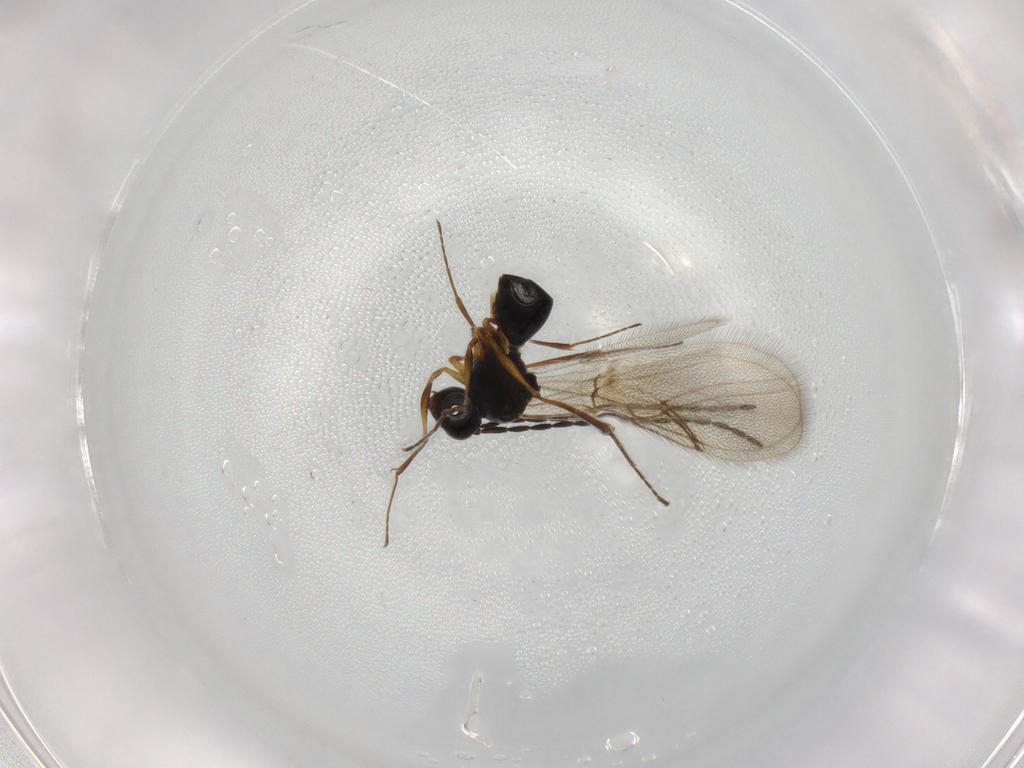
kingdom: Animalia
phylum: Arthropoda
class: Insecta
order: Hymenoptera
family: Figitidae
